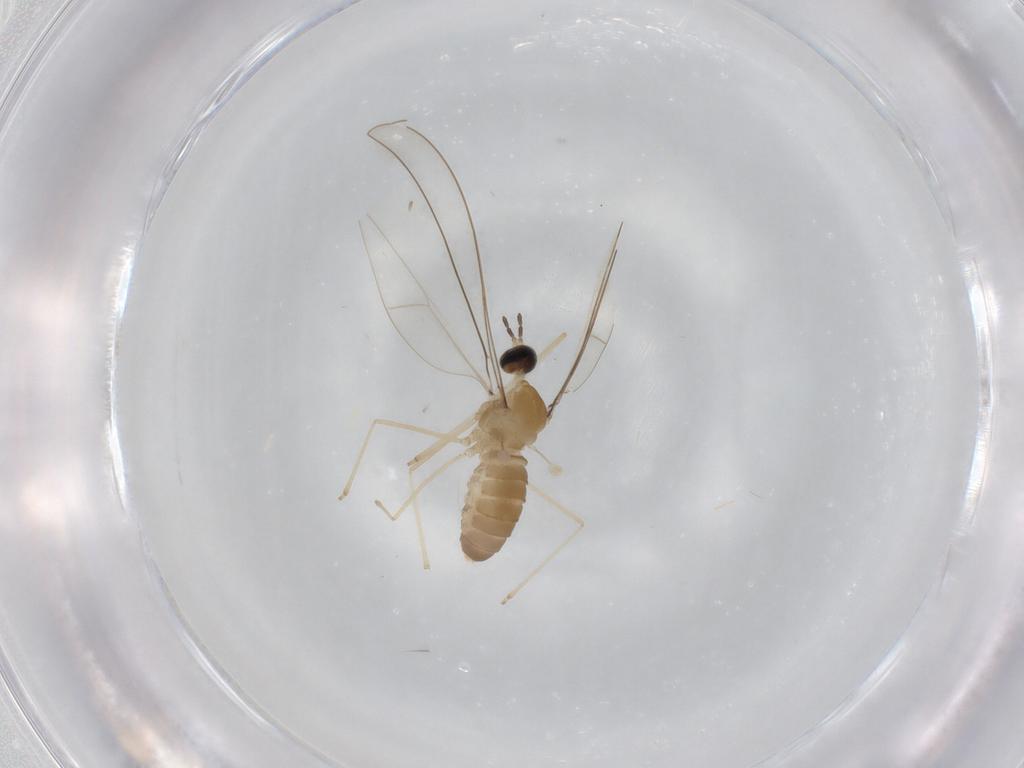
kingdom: Animalia
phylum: Arthropoda
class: Insecta
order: Diptera
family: Cecidomyiidae
